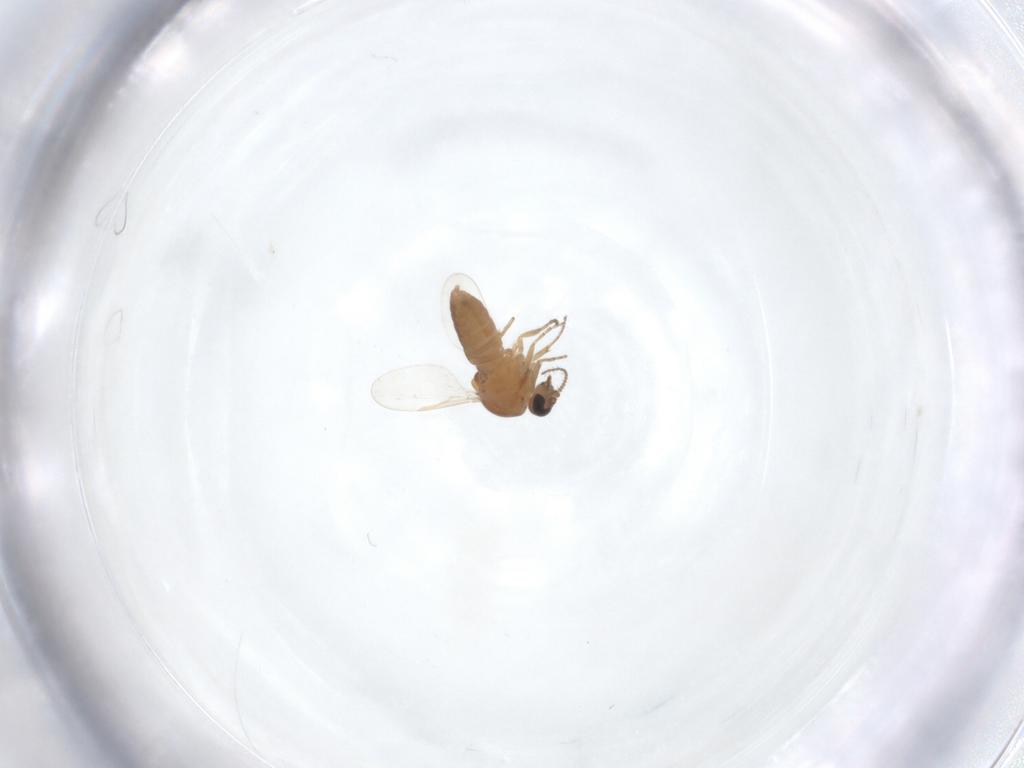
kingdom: Animalia
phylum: Arthropoda
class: Insecta
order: Diptera
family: Ceratopogonidae
